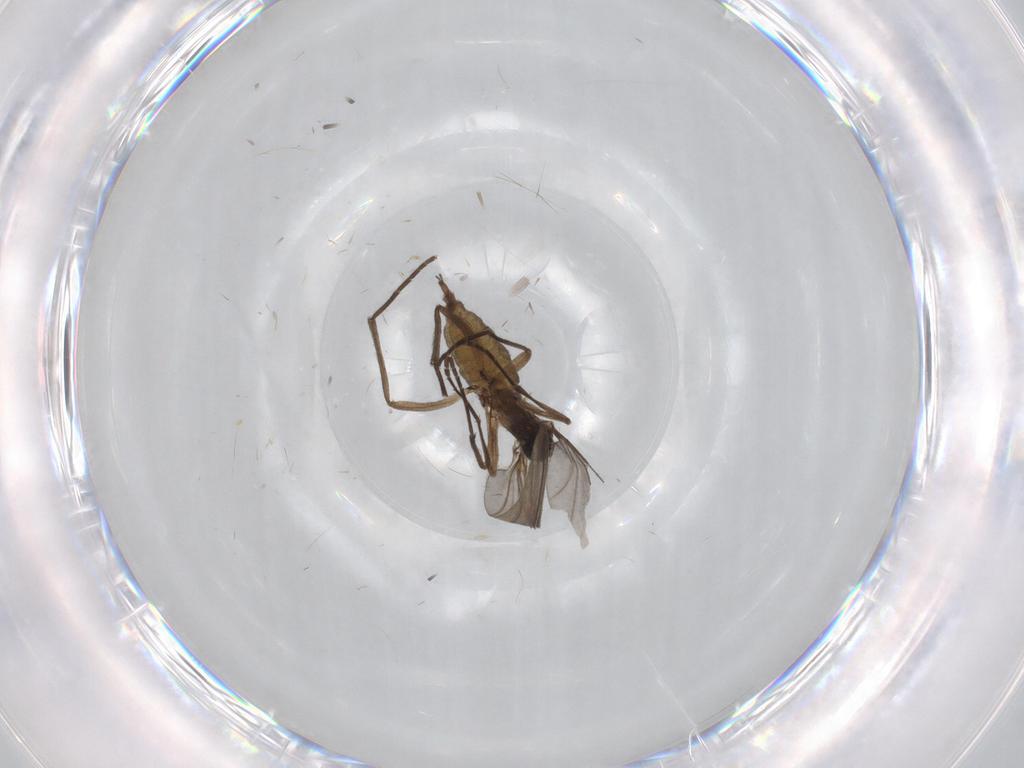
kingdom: Animalia
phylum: Arthropoda
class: Insecta
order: Diptera
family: Sciaridae
